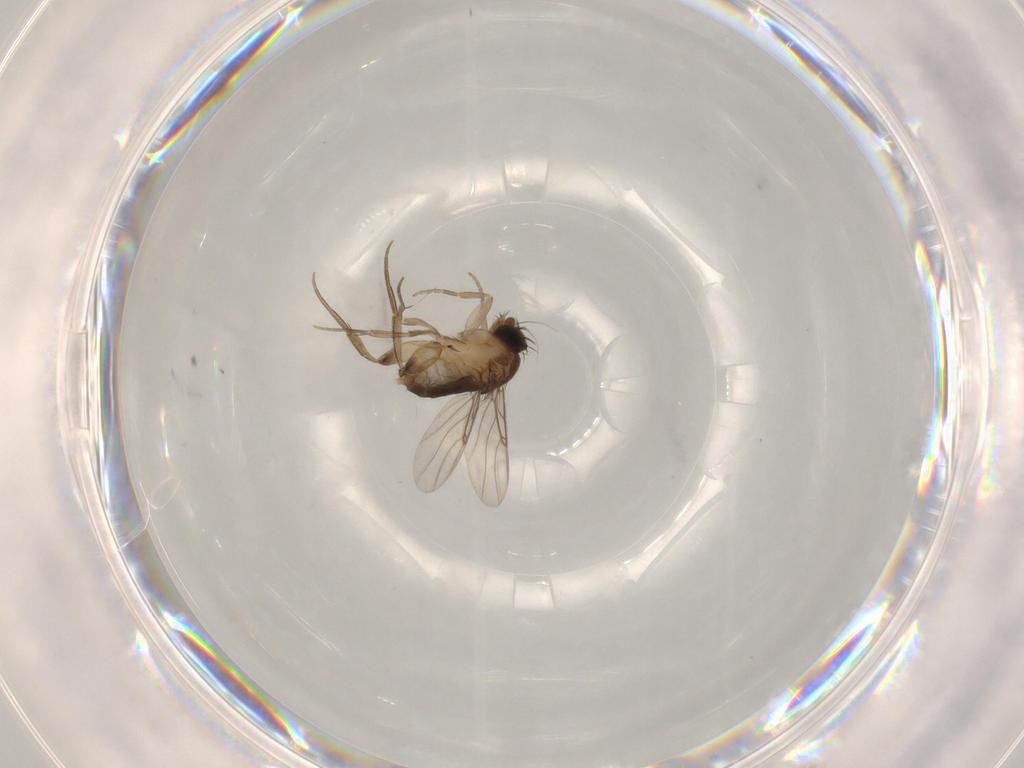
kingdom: Animalia
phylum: Arthropoda
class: Insecta
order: Diptera
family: Phoridae
